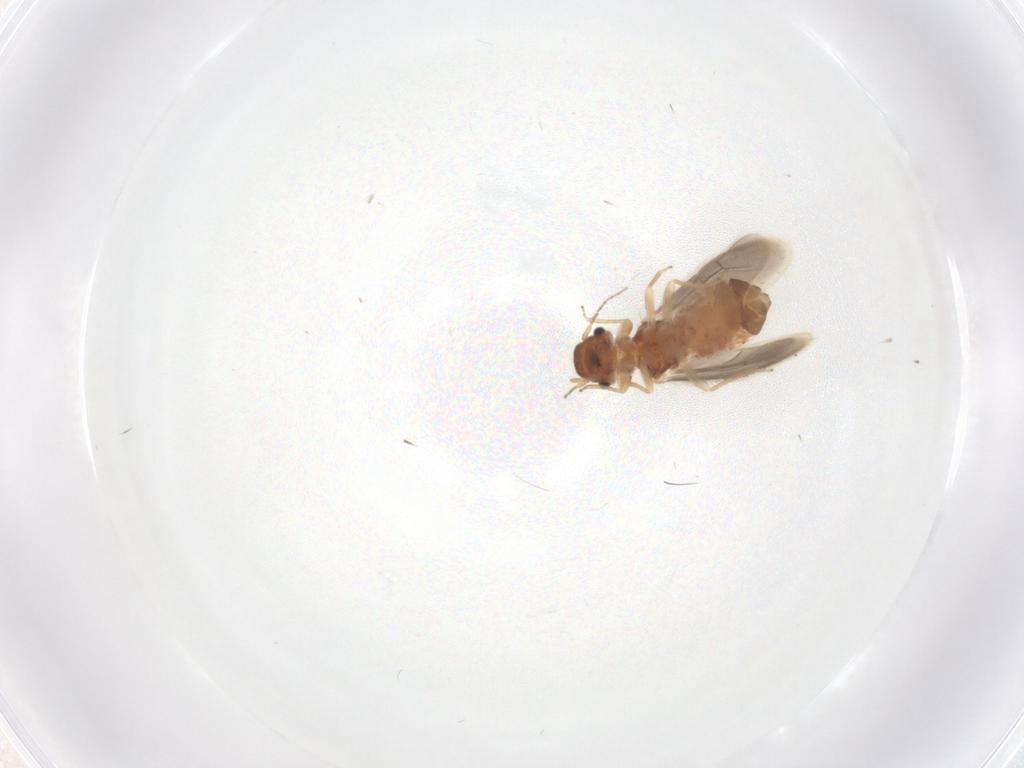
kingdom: Animalia
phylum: Arthropoda
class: Insecta
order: Psocodea
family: Archipsocidae
